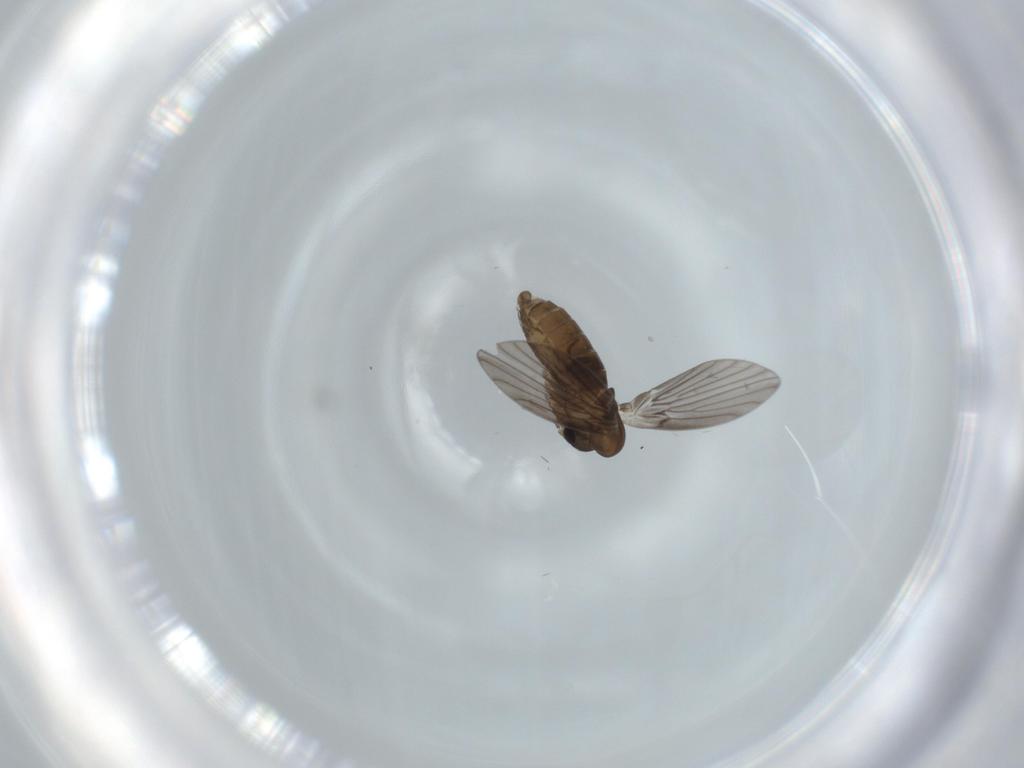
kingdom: Animalia
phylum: Arthropoda
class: Insecta
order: Diptera
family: Psychodidae
